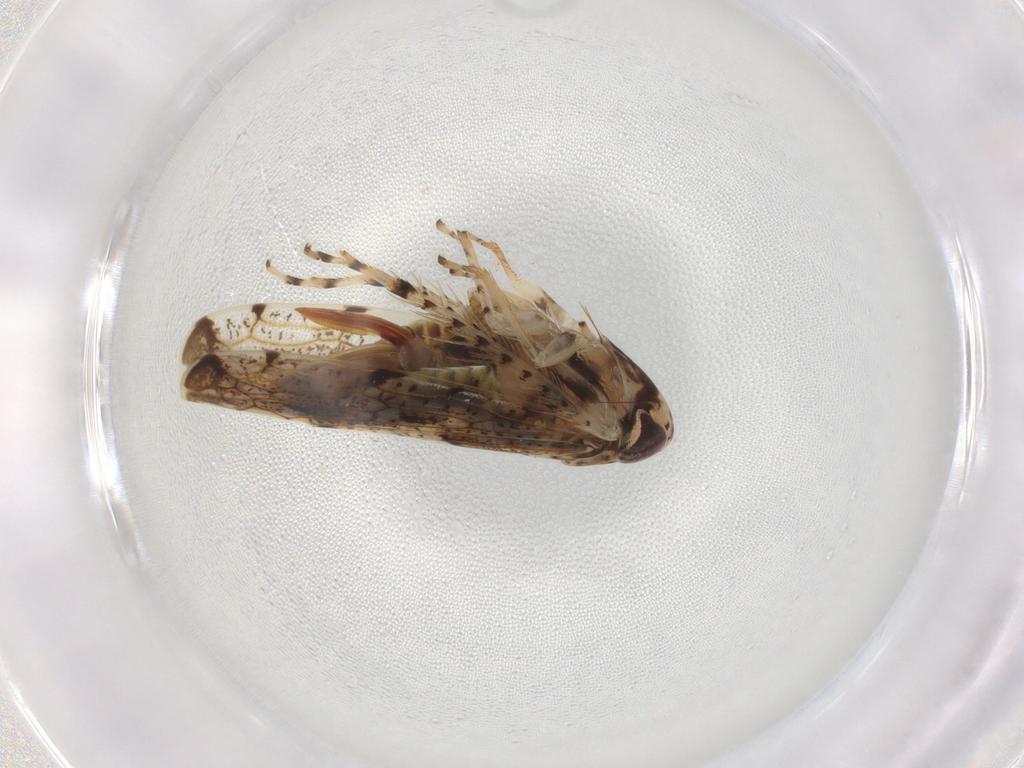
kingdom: Animalia
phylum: Arthropoda
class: Insecta
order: Hemiptera
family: Cicadellidae
